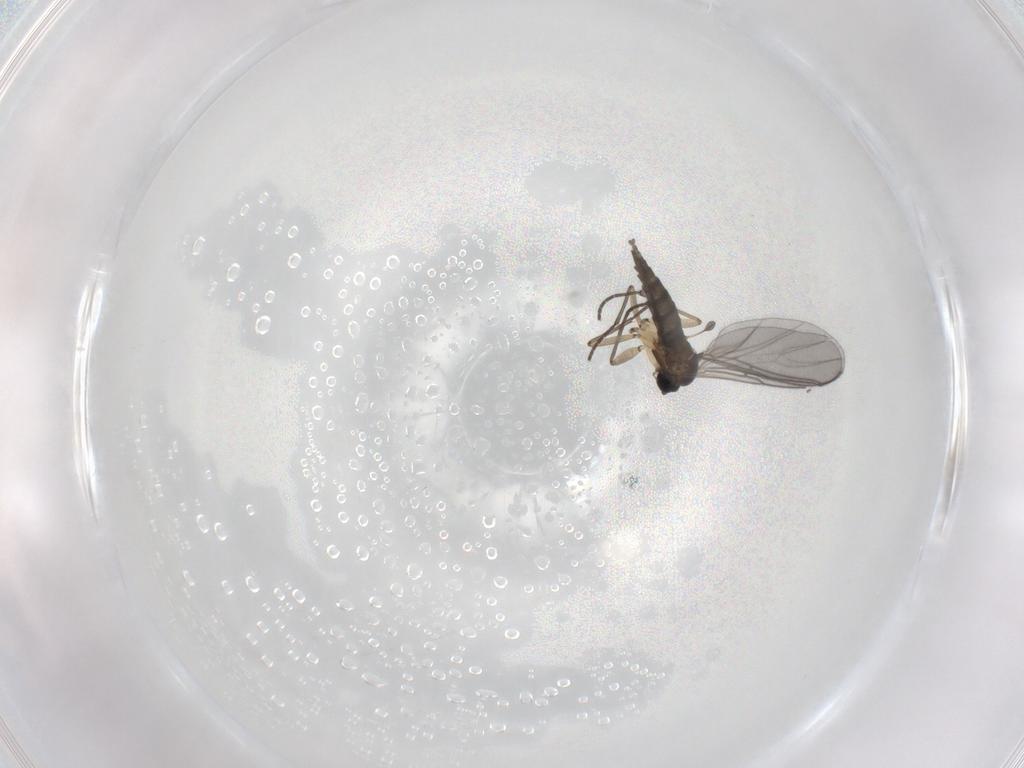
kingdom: Animalia
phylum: Arthropoda
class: Insecta
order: Diptera
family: Sciaridae
